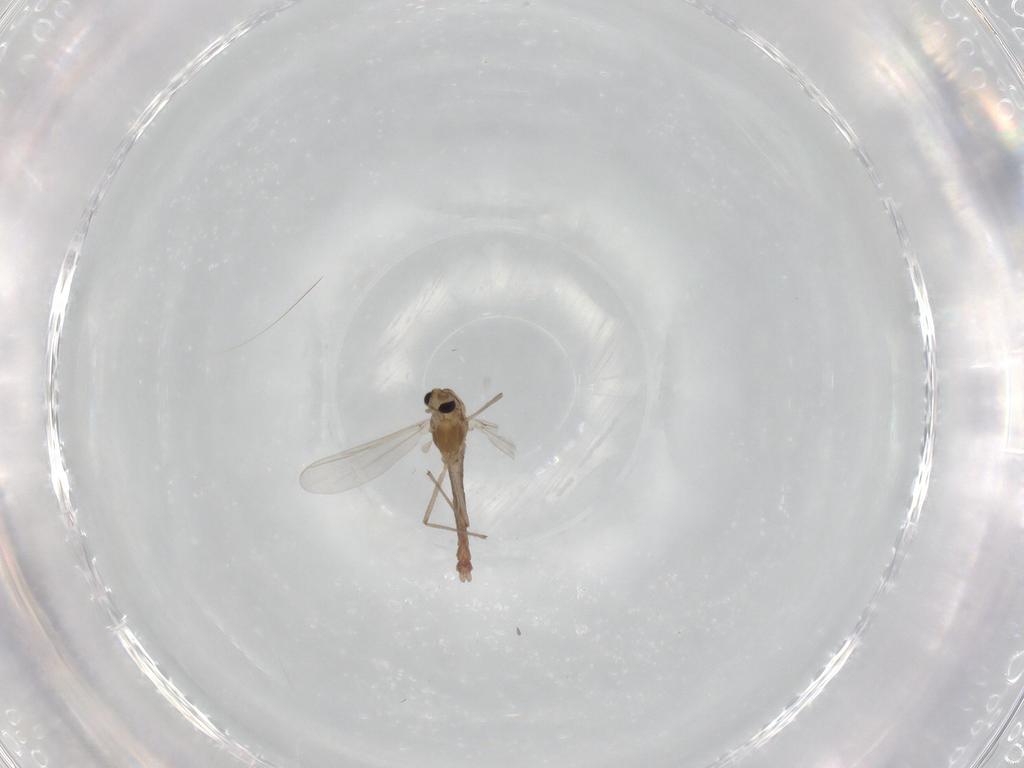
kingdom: Animalia
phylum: Arthropoda
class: Insecta
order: Diptera
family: Chironomidae
